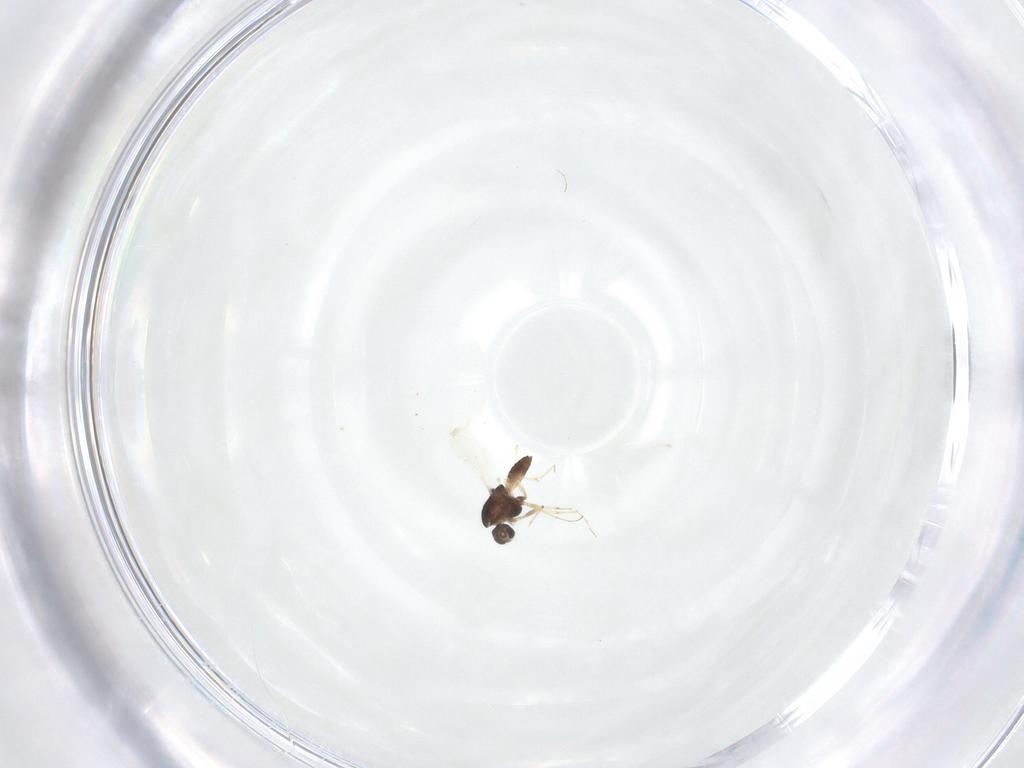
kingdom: Animalia
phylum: Arthropoda
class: Insecta
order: Diptera
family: Chironomidae
